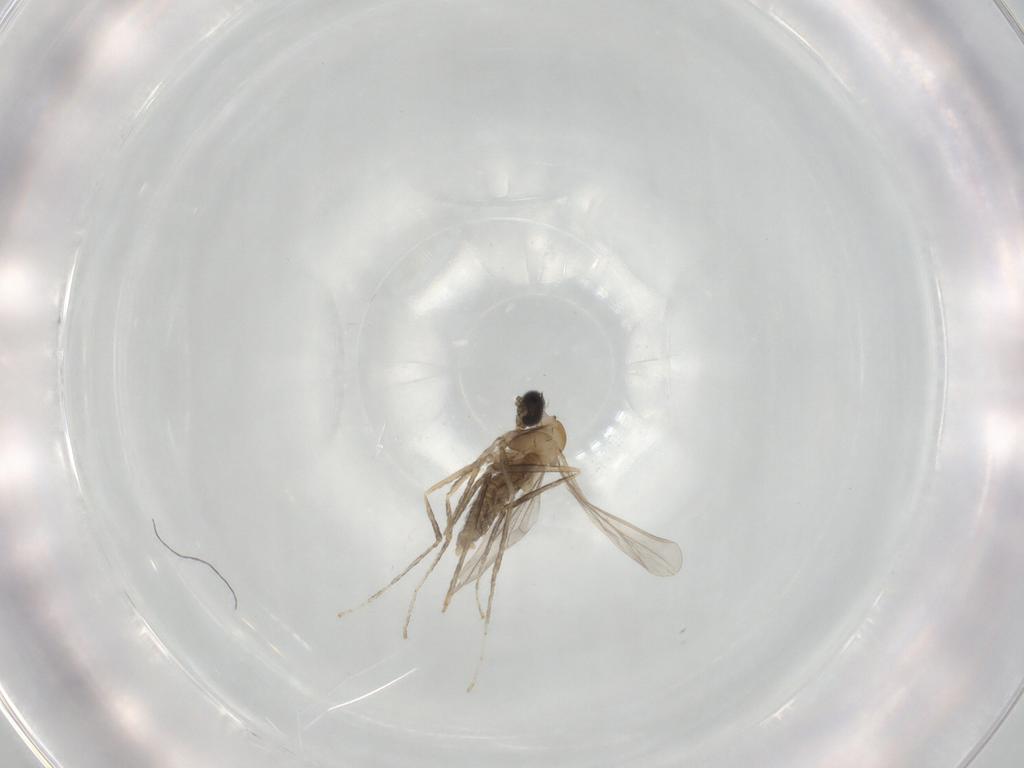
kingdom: Animalia
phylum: Arthropoda
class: Insecta
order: Diptera
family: Cecidomyiidae
